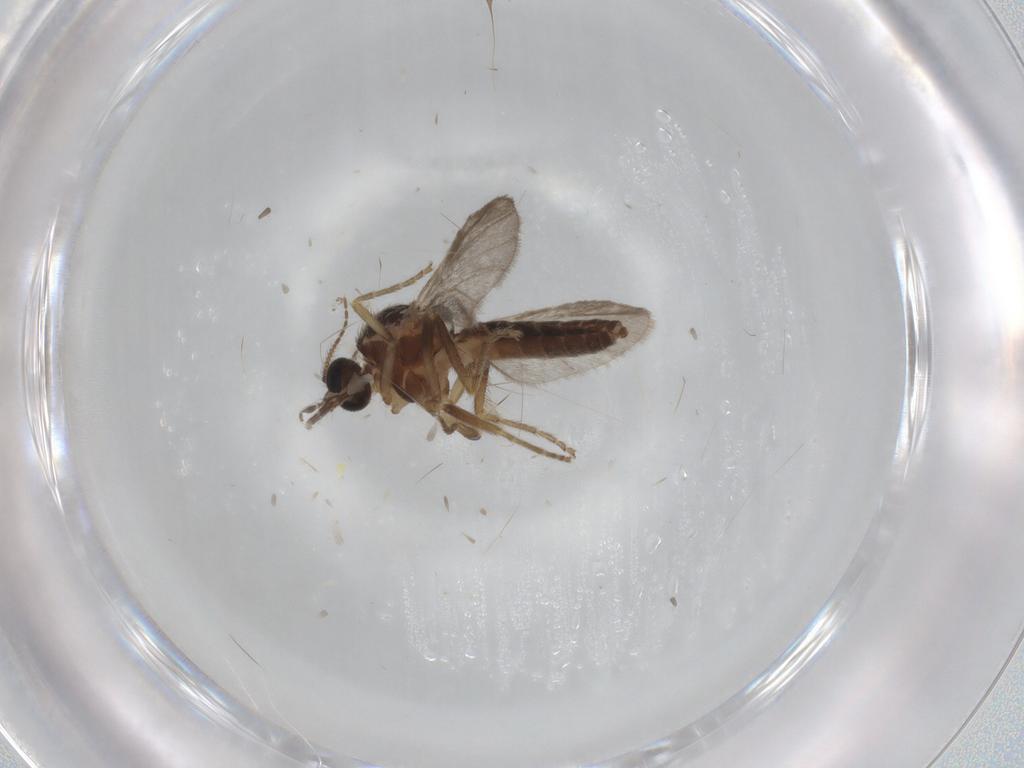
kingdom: Animalia
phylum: Arthropoda
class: Insecta
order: Diptera
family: Ceratopogonidae
